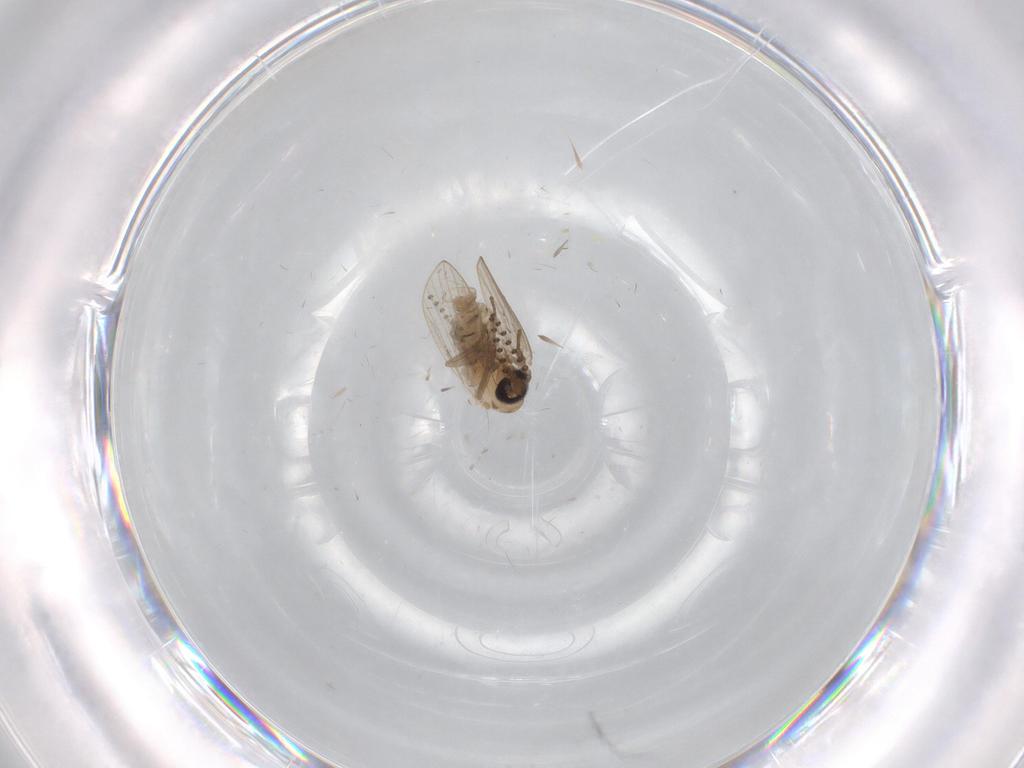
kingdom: Animalia
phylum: Arthropoda
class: Insecta
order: Diptera
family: Psychodidae
